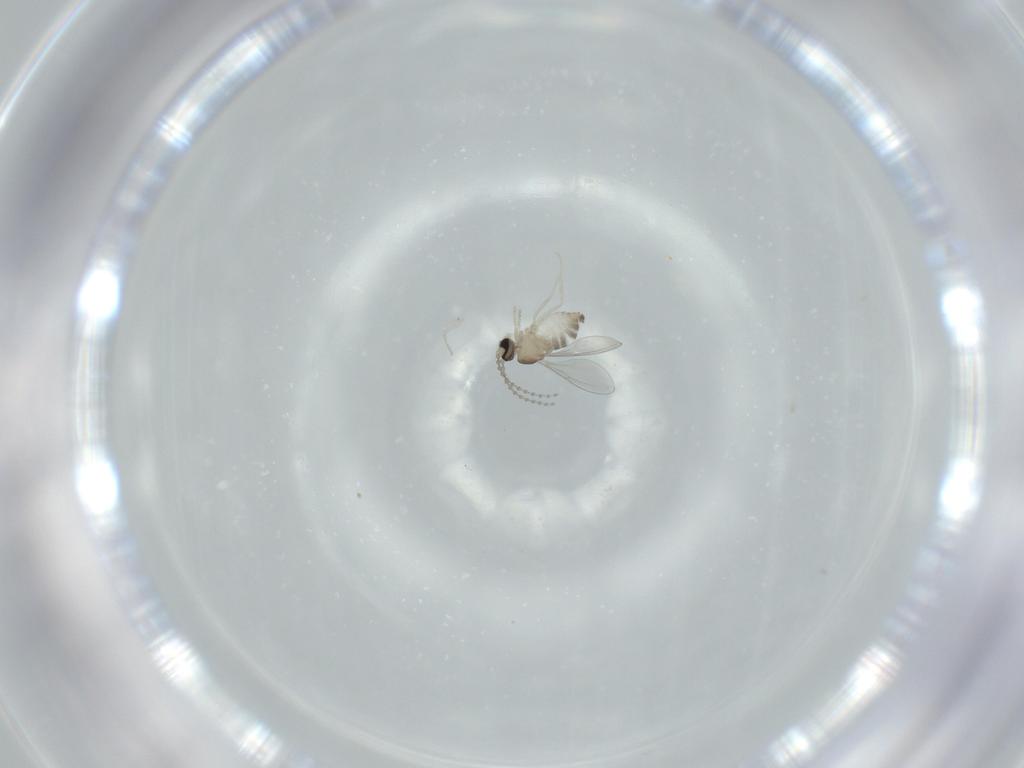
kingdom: Animalia
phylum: Arthropoda
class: Insecta
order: Diptera
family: Cecidomyiidae
